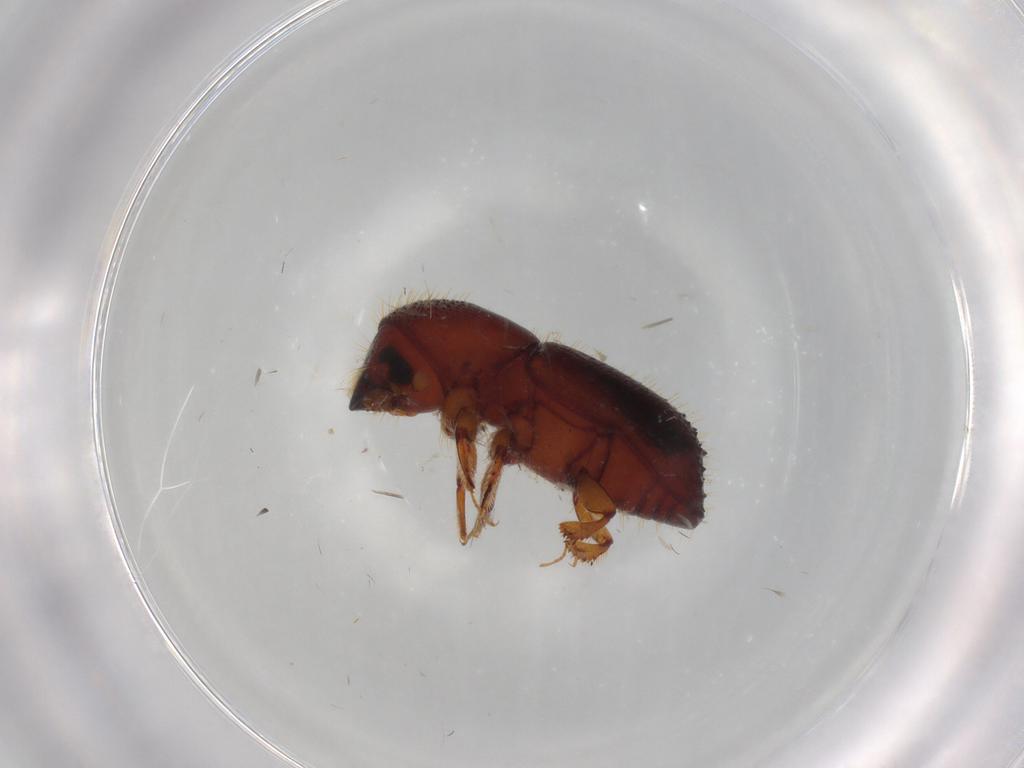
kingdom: Animalia
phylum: Arthropoda
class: Insecta
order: Coleoptera
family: Curculionidae
